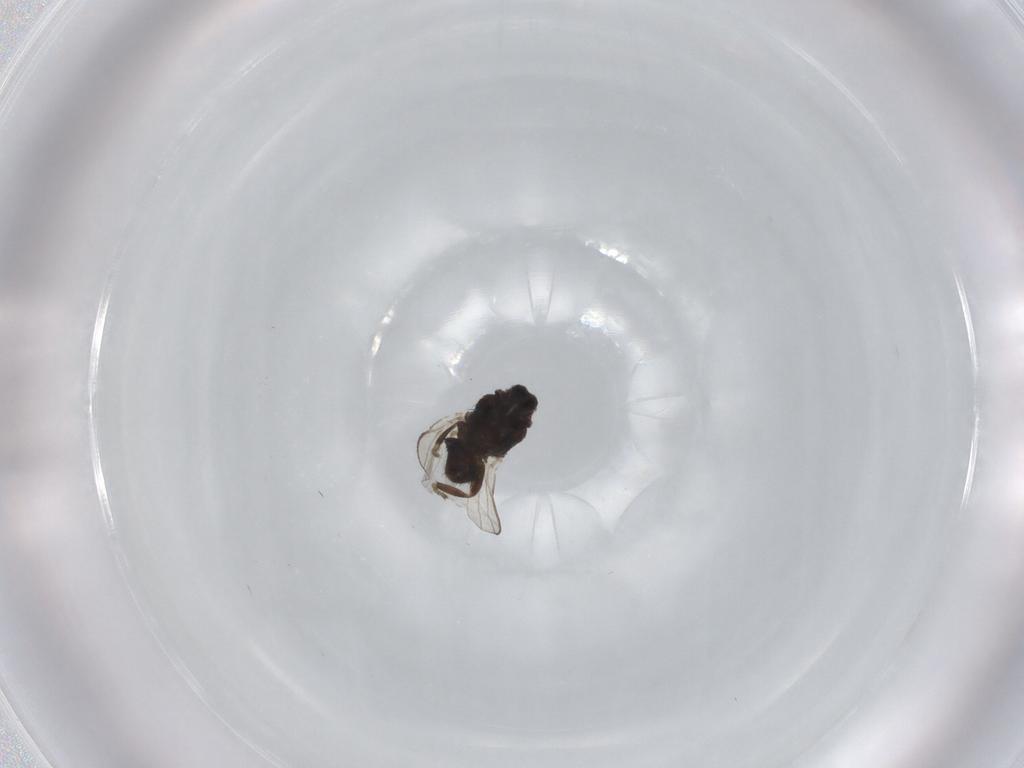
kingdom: Animalia
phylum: Arthropoda
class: Insecta
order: Diptera
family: Milichiidae
